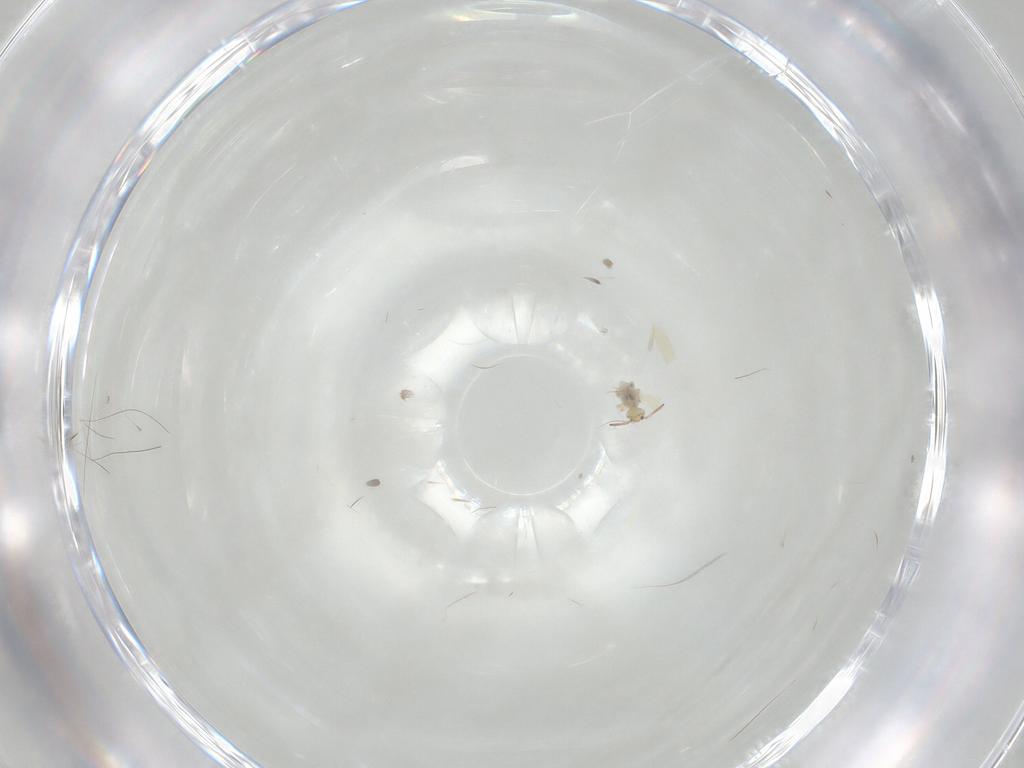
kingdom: Animalia
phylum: Arthropoda
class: Collembola
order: Symphypleona
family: Bourletiellidae
